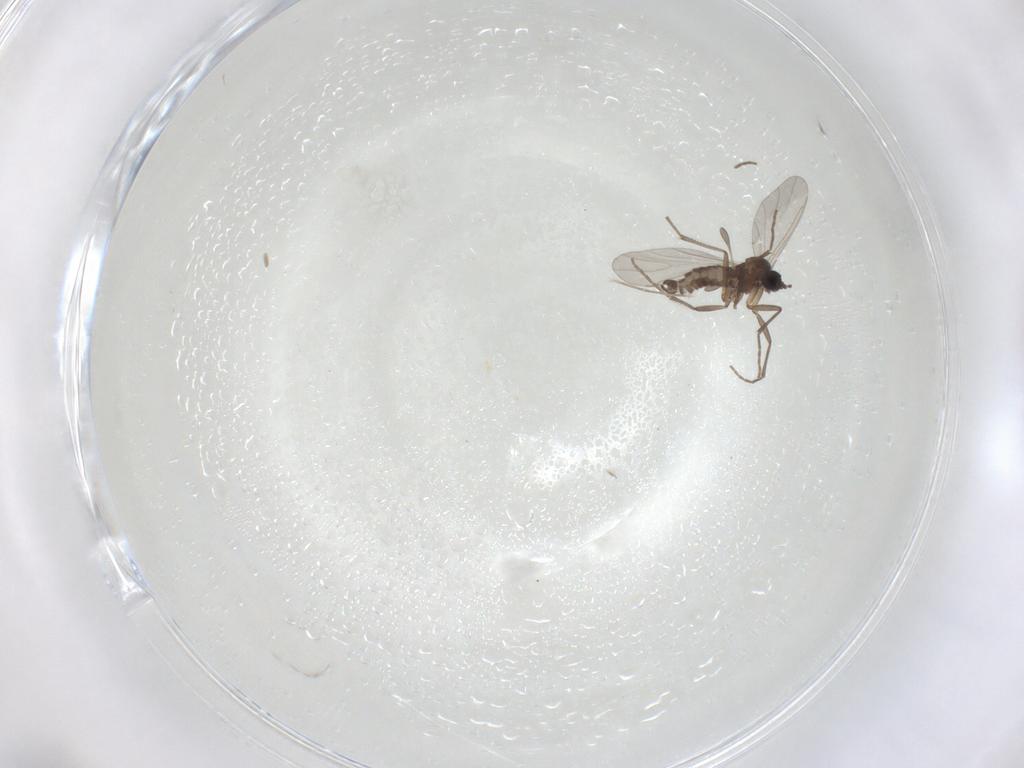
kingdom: Animalia
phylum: Arthropoda
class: Insecta
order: Diptera
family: Sciaridae
